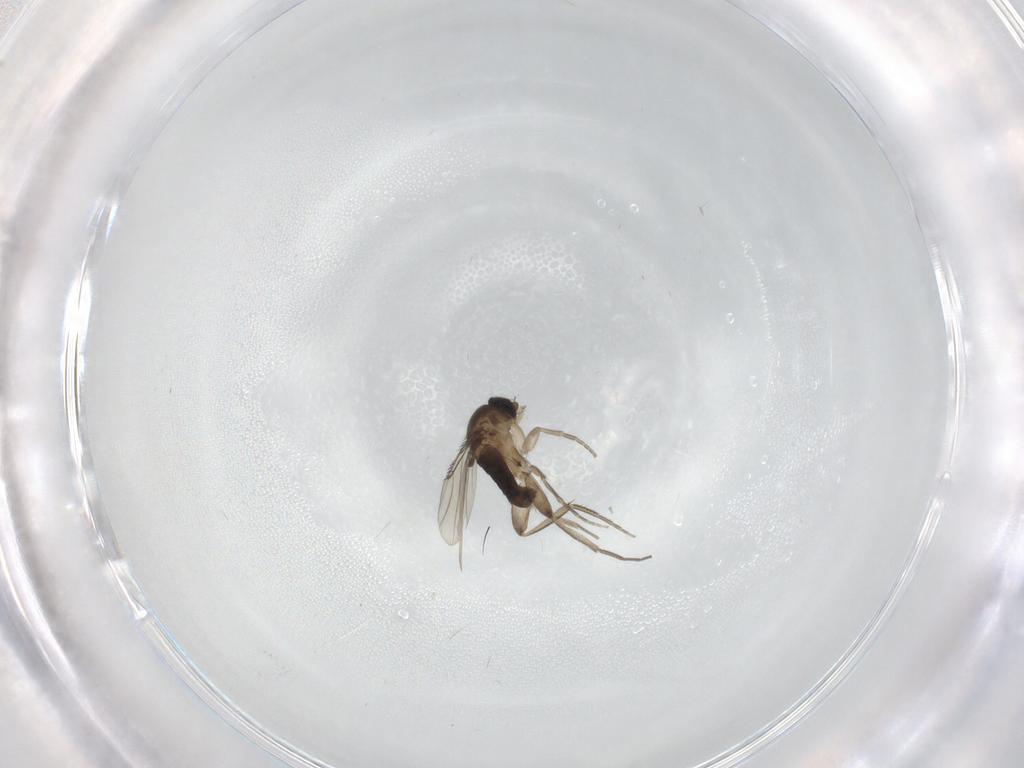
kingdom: Animalia
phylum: Arthropoda
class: Insecta
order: Diptera
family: Phoridae
